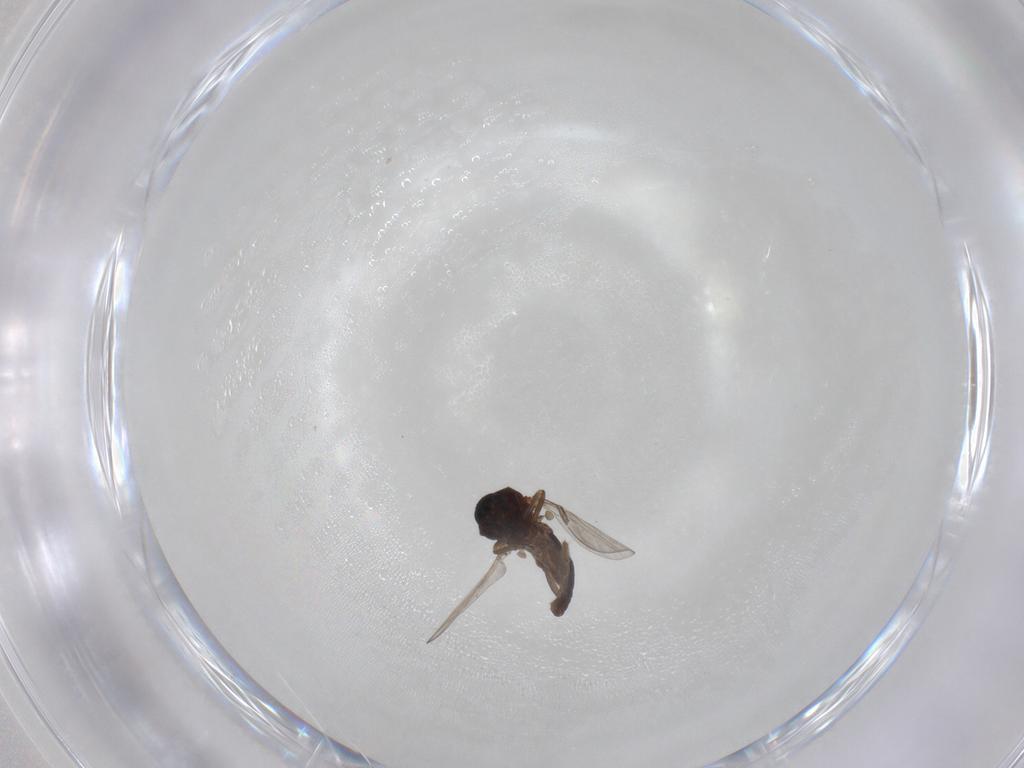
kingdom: Animalia
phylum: Arthropoda
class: Insecta
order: Diptera
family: Ceratopogonidae
